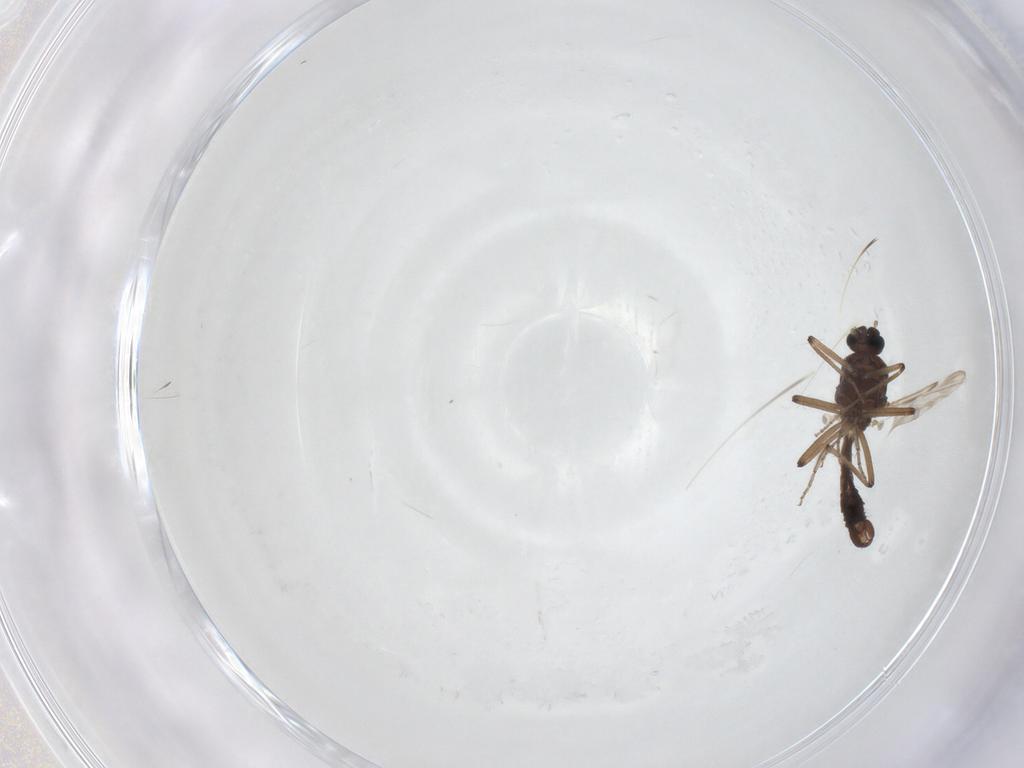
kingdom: Animalia
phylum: Arthropoda
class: Insecta
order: Diptera
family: Ceratopogonidae
